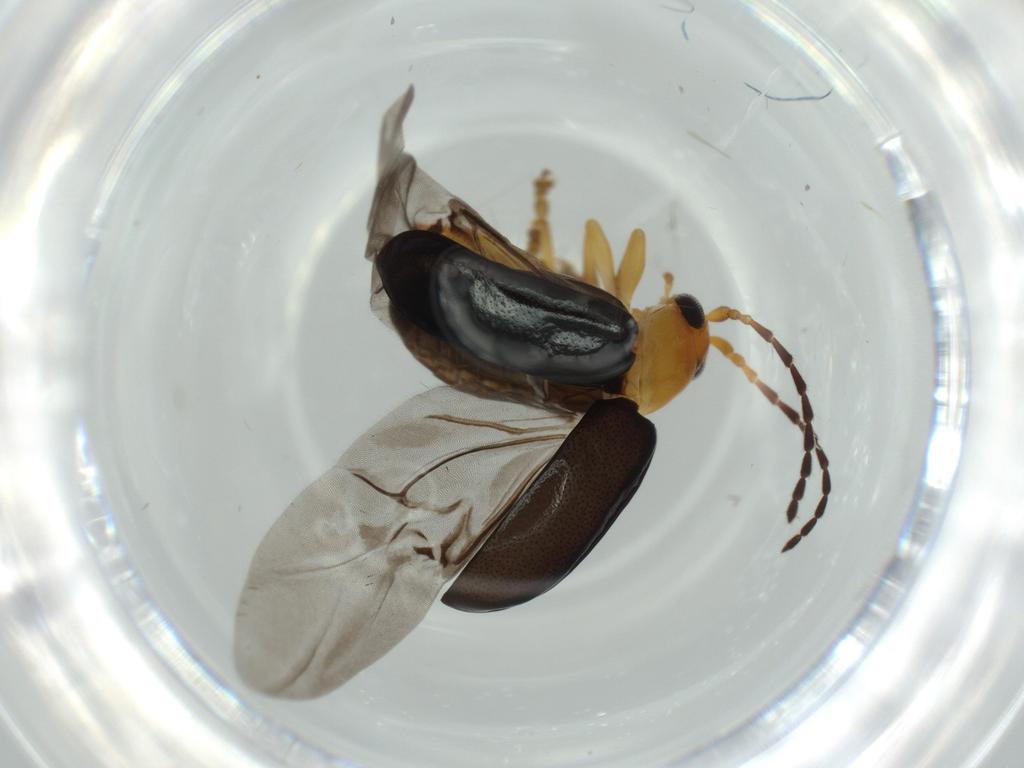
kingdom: Animalia
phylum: Arthropoda
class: Insecta
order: Coleoptera
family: Chrysomelidae
